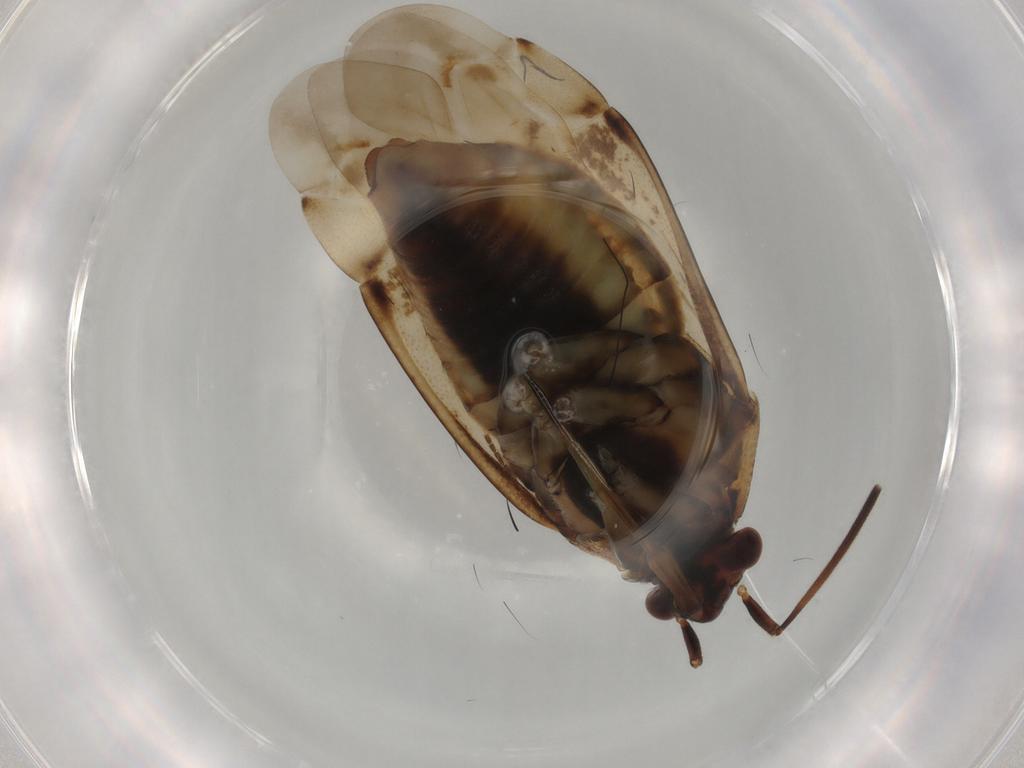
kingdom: Animalia
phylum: Arthropoda
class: Insecta
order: Hemiptera
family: Miridae
